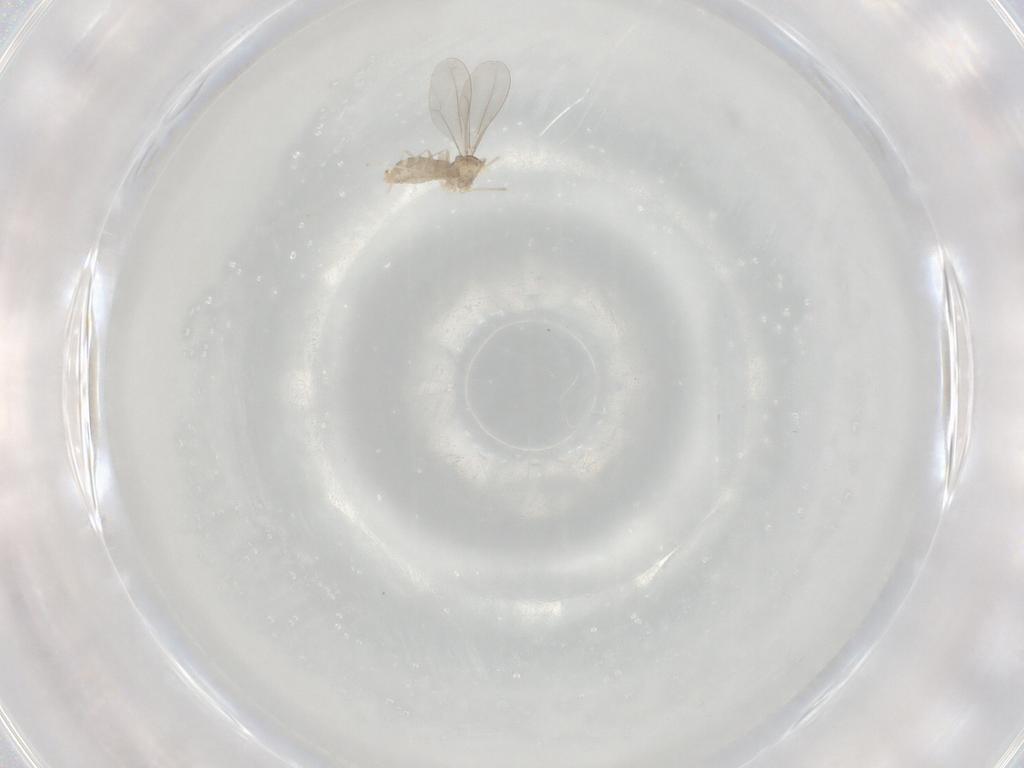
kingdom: Animalia
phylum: Arthropoda
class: Insecta
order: Diptera
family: Cecidomyiidae
